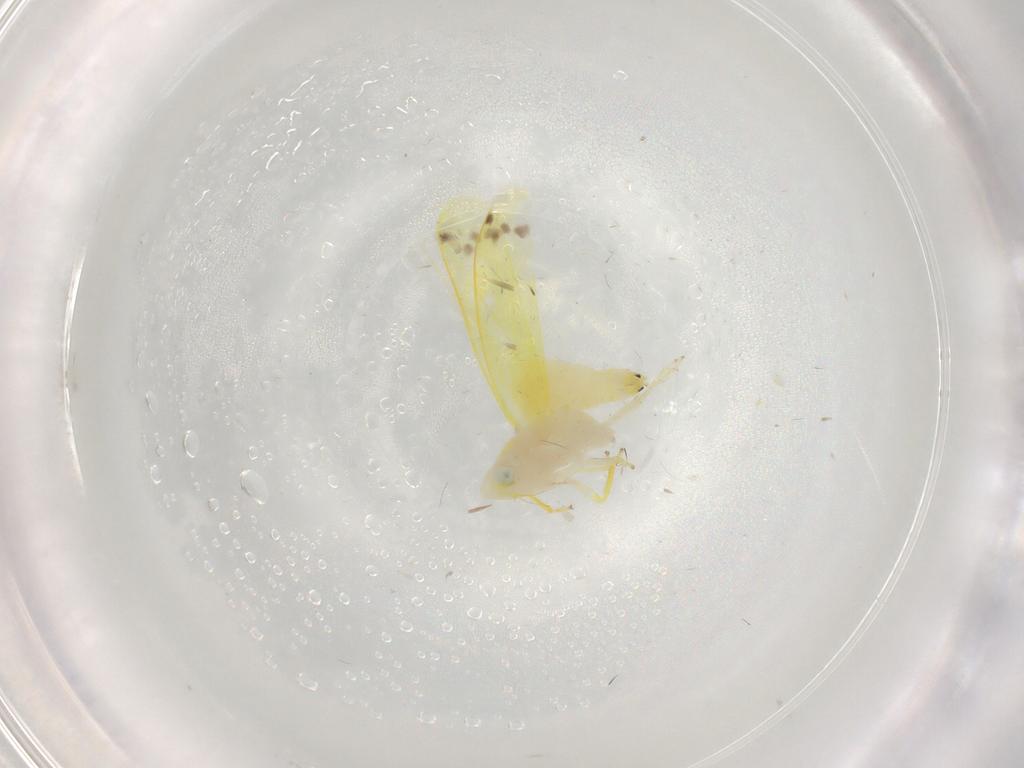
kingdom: Animalia
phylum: Arthropoda
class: Insecta
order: Hemiptera
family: Cicadellidae
